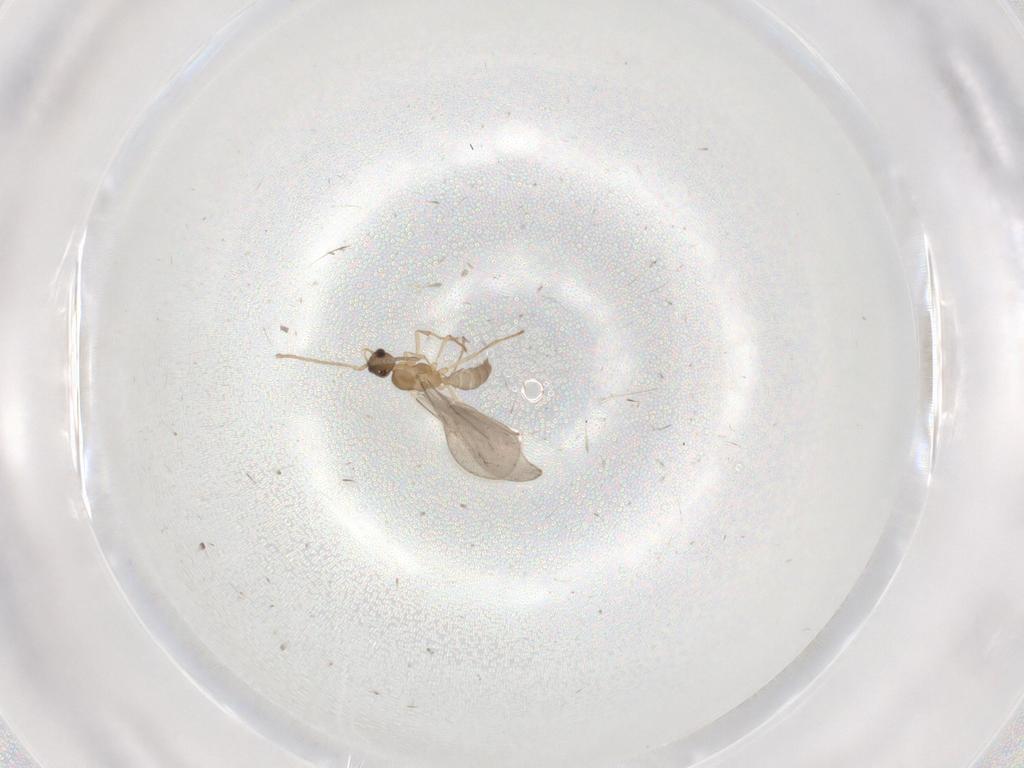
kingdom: Animalia
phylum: Arthropoda
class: Insecta
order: Hymenoptera
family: Formicidae
